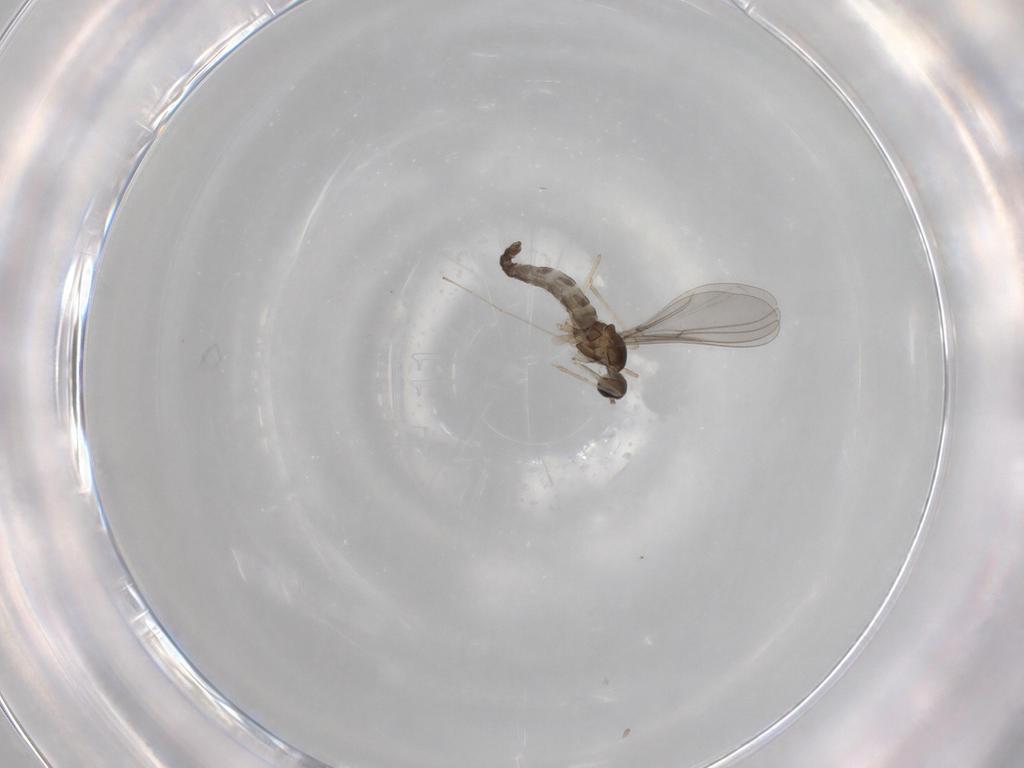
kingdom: Animalia
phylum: Arthropoda
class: Insecta
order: Diptera
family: Cecidomyiidae
